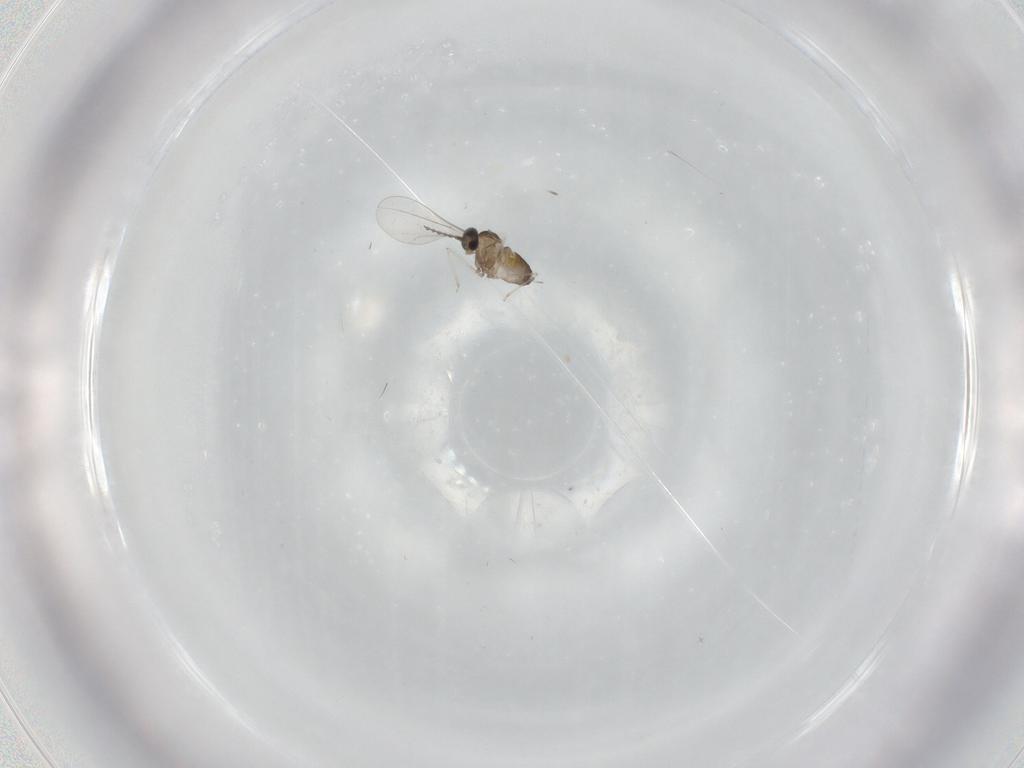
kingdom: Animalia
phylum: Arthropoda
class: Insecta
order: Diptera
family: Cecidomyiidae
